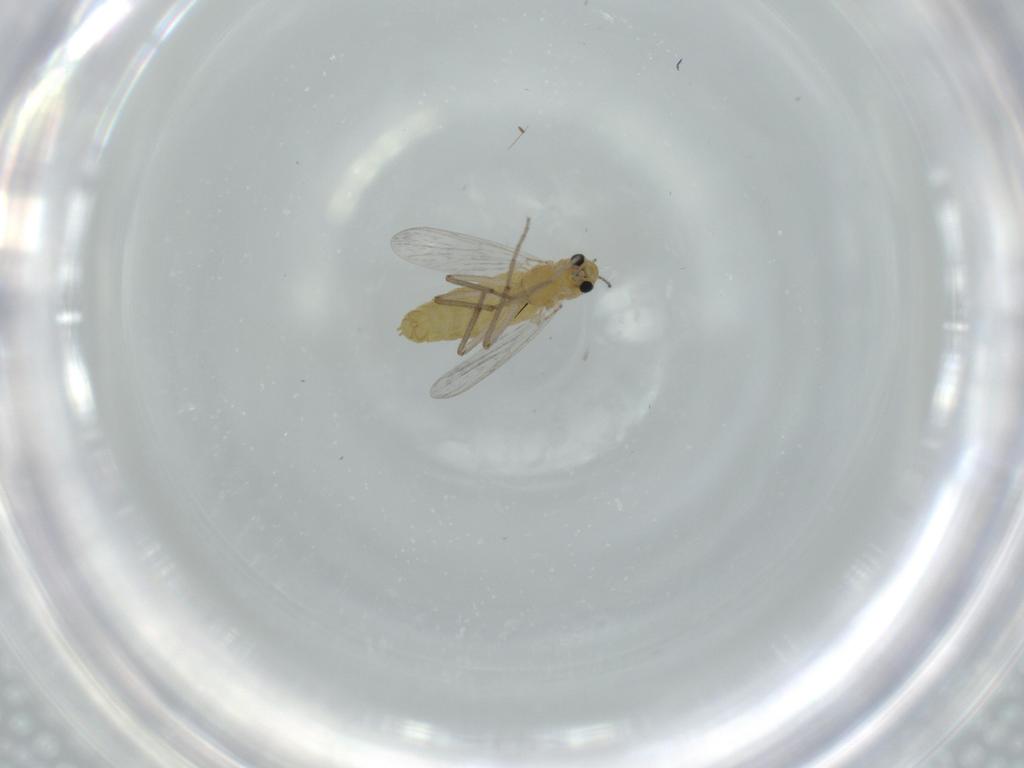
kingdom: Animalia
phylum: Arthropoda
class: Insecta
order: Diptera
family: Chironomidae
